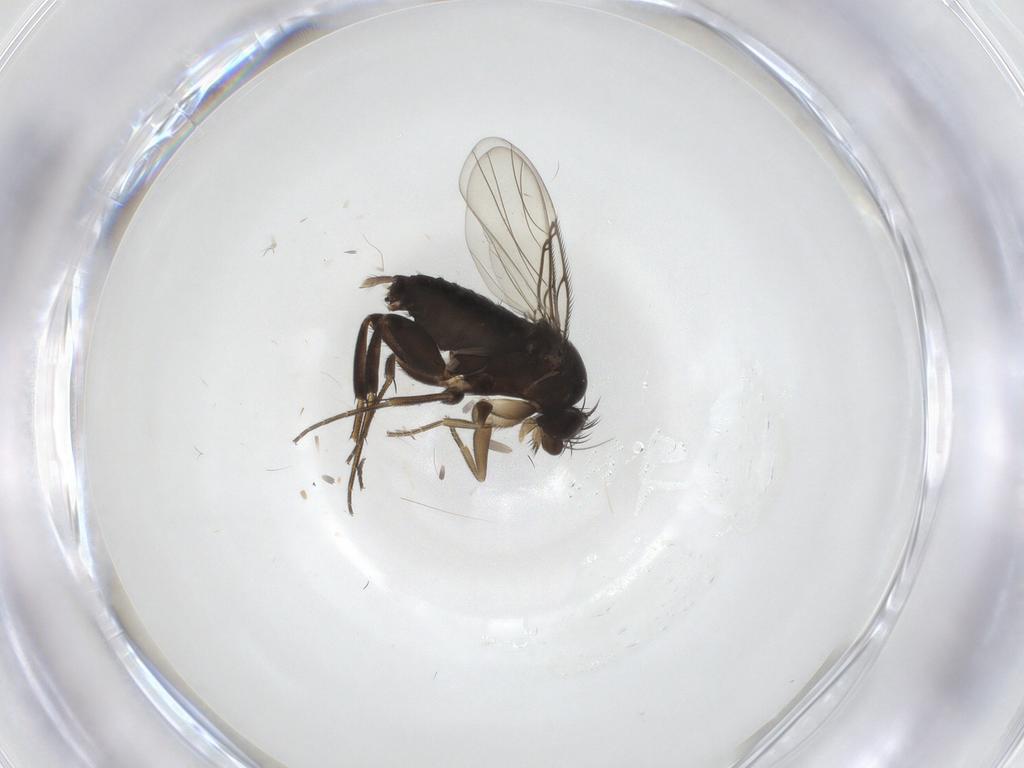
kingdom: Animalia
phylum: Arthropoda
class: Insecta
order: Diptera
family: Phoridae
